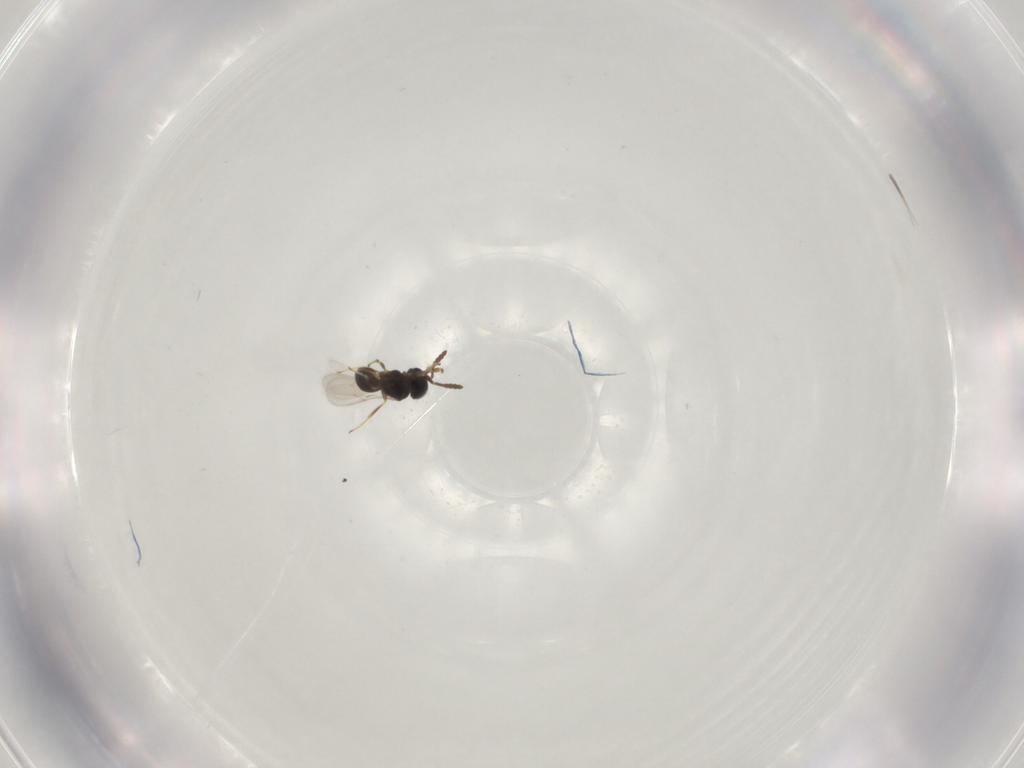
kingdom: Animalia
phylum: Arthropoda
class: Insecta
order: Hymenoptera
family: Scelionidae
